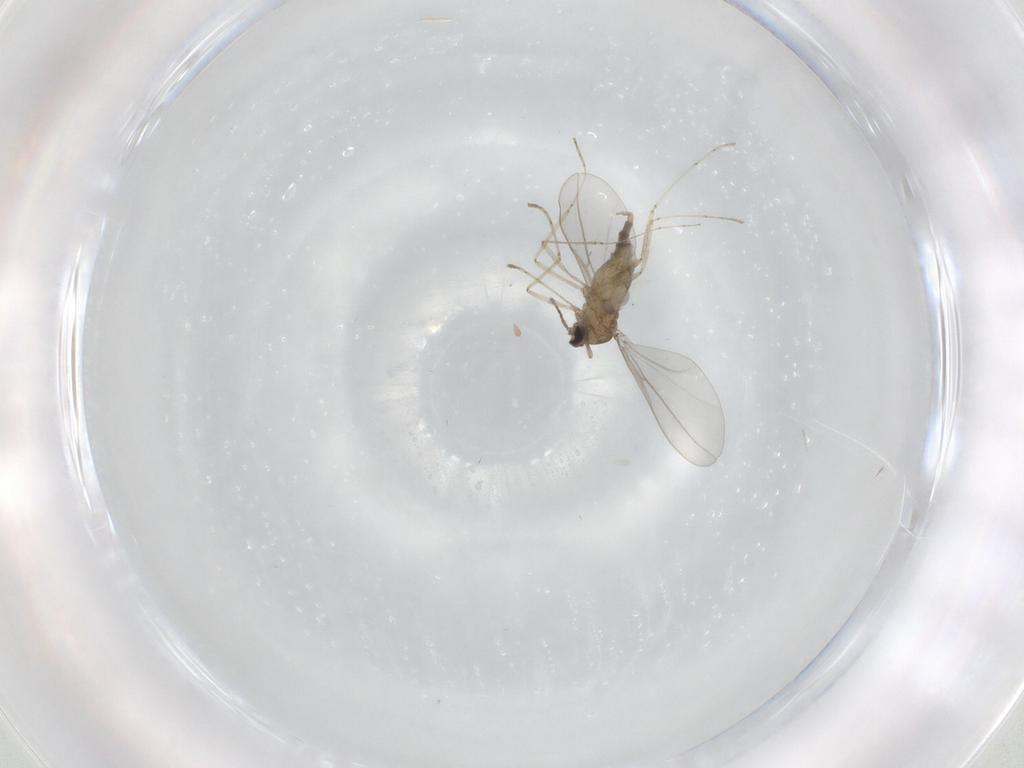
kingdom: Animalia
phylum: Arthropoda
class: Insecta
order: Diptera
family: Cecidomyiidae
